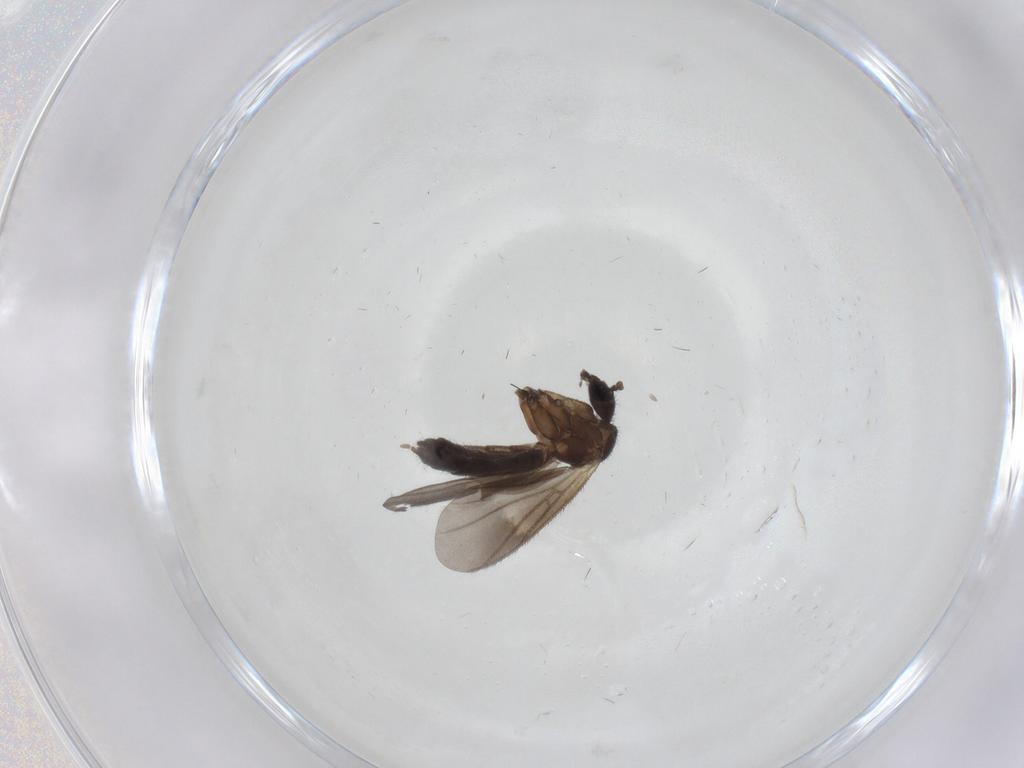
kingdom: Animalia
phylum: Arthropoda
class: Insecta
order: Diptera
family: Mycetophilidae
